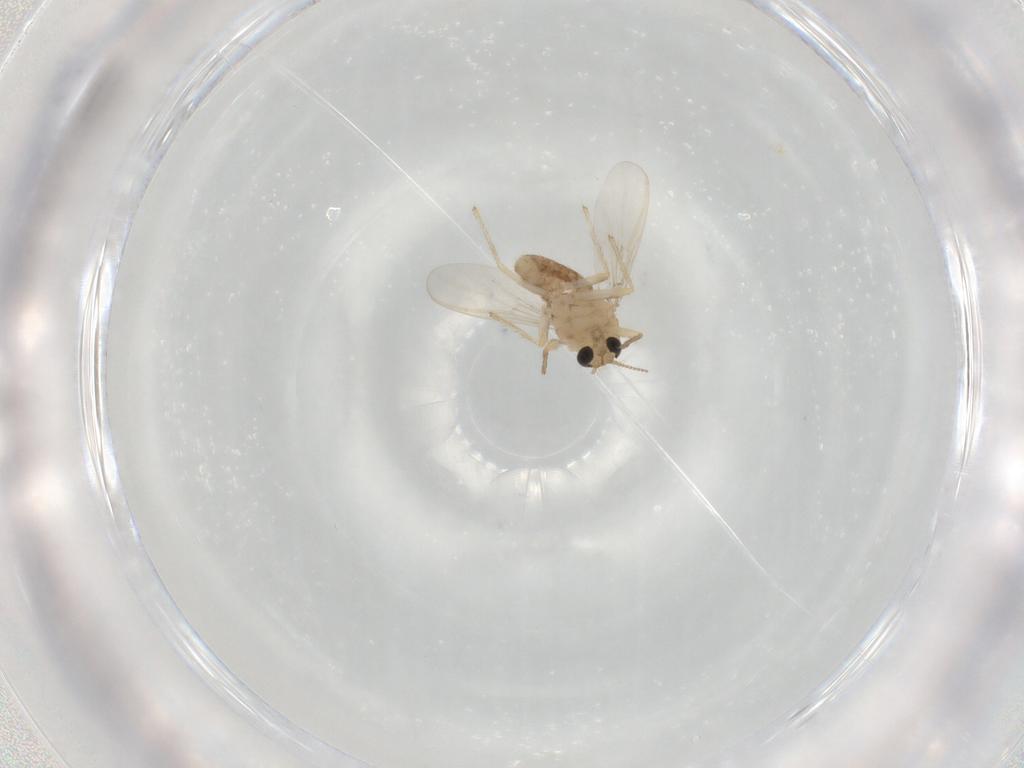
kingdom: Animalia
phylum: Arthropoda
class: Insecta
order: Diptera
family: Chironomidae
